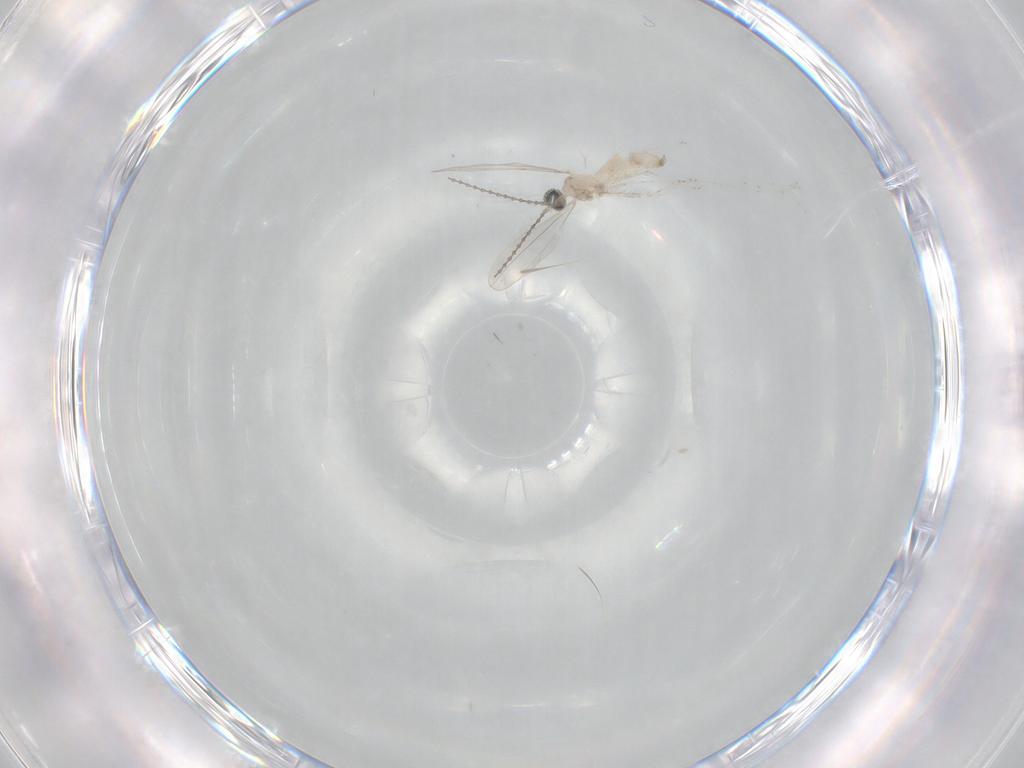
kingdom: Animalia
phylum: Arthropoda
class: Insecta
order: Diptera
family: Cecidomyiidae
